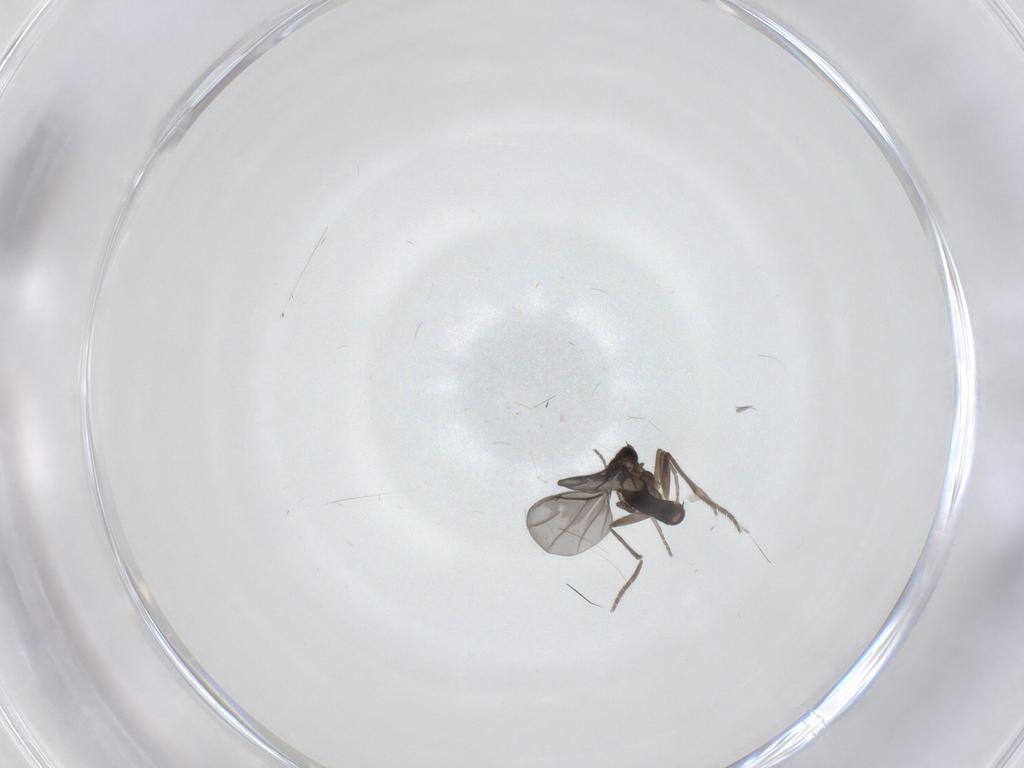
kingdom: Animalia
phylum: Arthropoda
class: Insecta
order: Diptera
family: Phoridae
